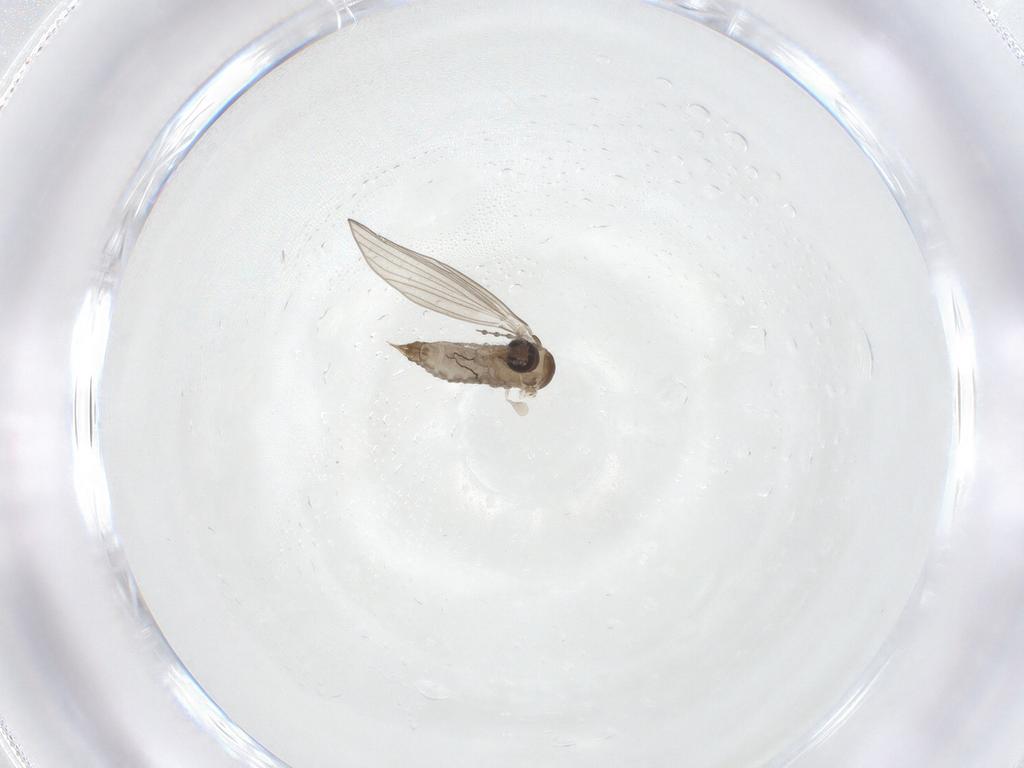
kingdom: Animalia
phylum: Arthropoda
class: Insecta
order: Diptera
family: Psychodidae
